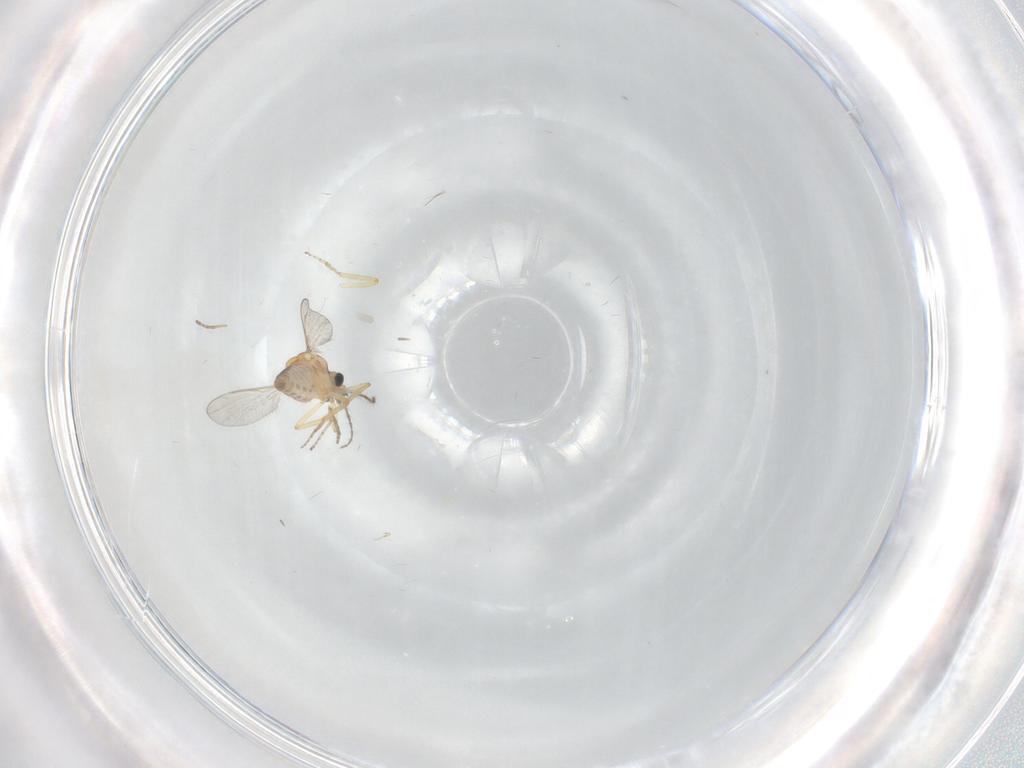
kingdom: Animalia
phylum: Arthropoda
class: Insecta
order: Diptera
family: Ceratopogonidae
